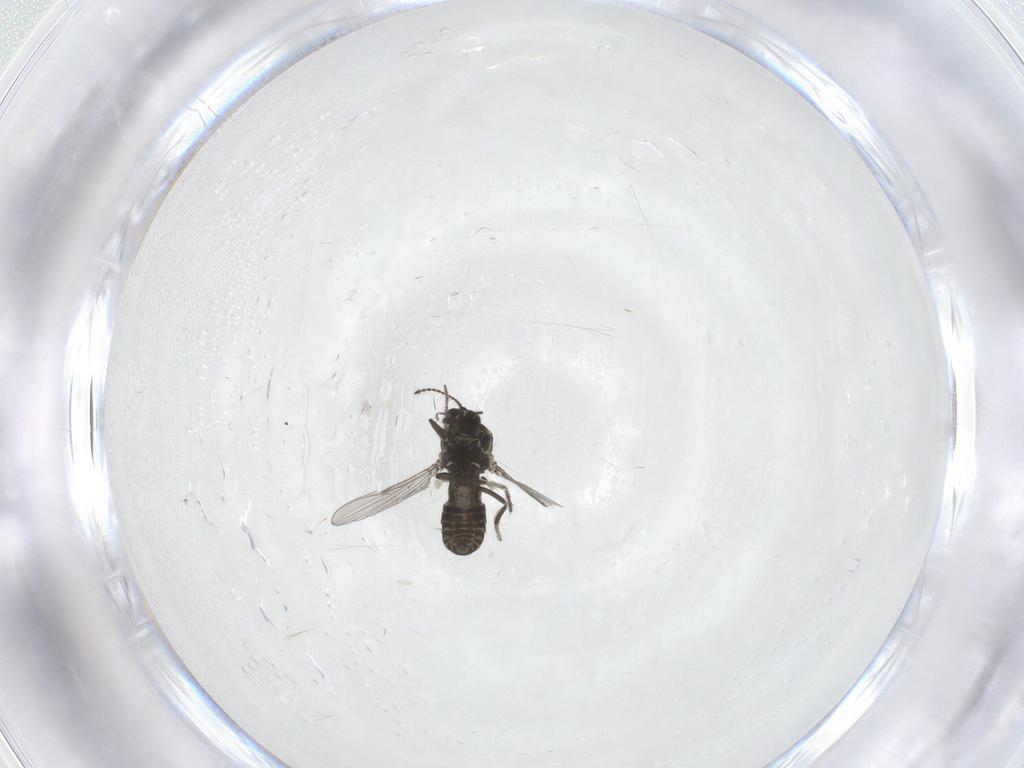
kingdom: Animalia
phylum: Arthropoda
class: Insecta
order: Diptera
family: Ceratopogonidae
